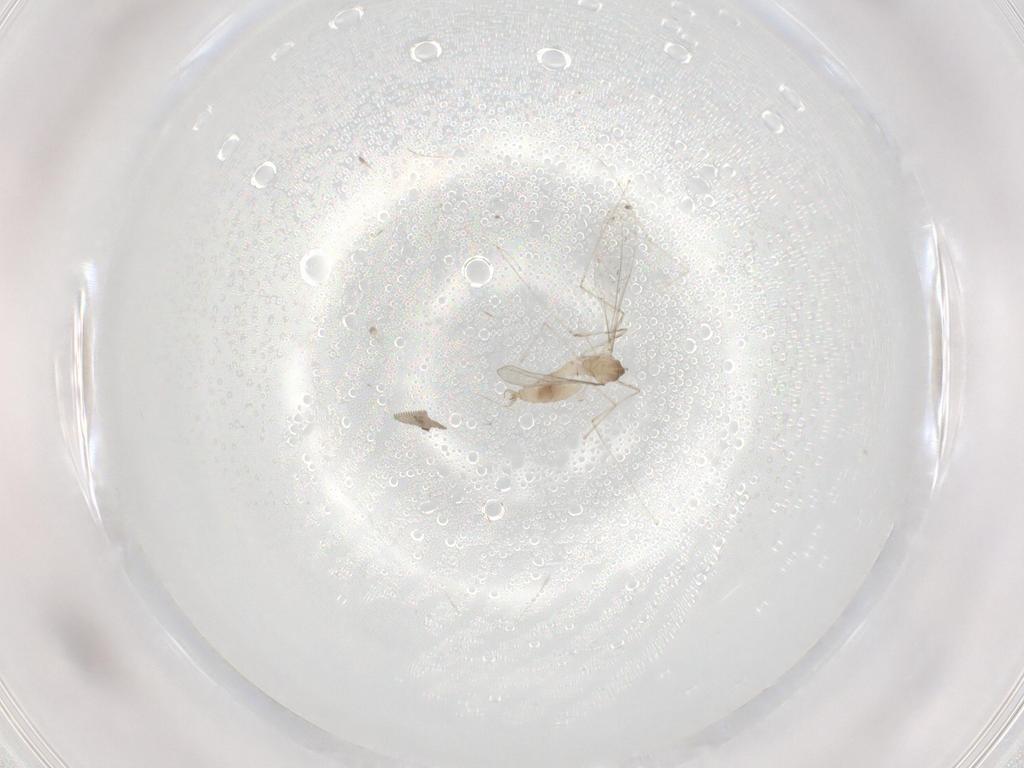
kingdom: Animalia
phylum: Arthropoda
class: Insecta
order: Diptera
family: Cecidomyiidae
